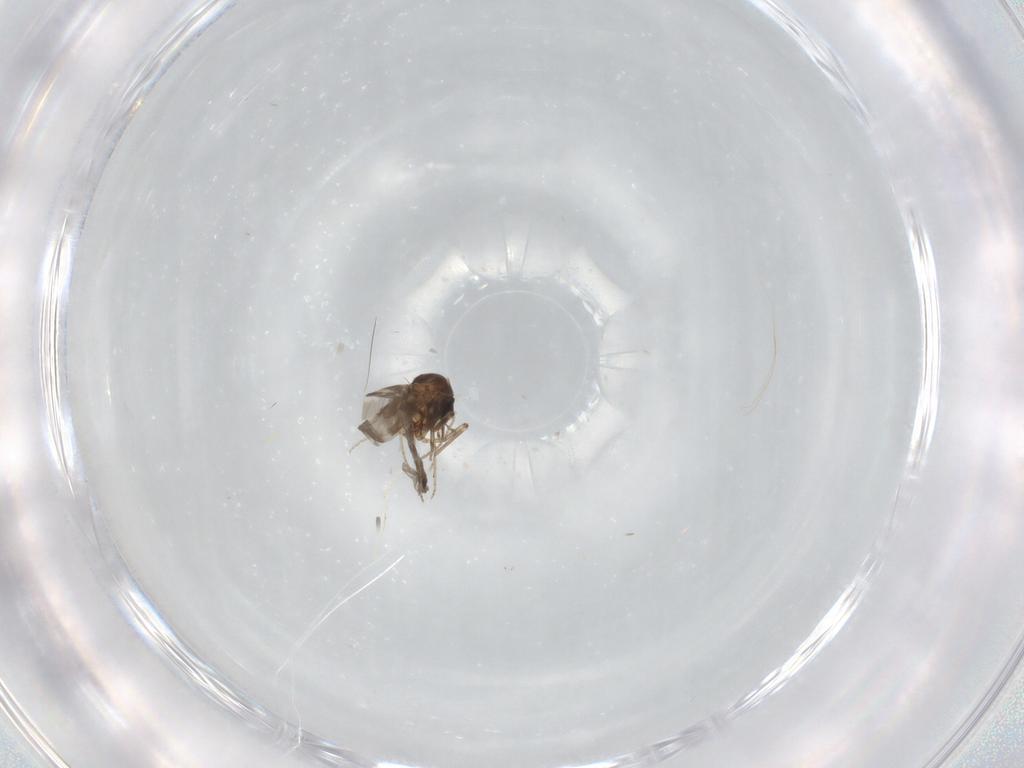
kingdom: Animalia
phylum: Arthropoda
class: Insecta
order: Diptera
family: Ceratopogonidae
